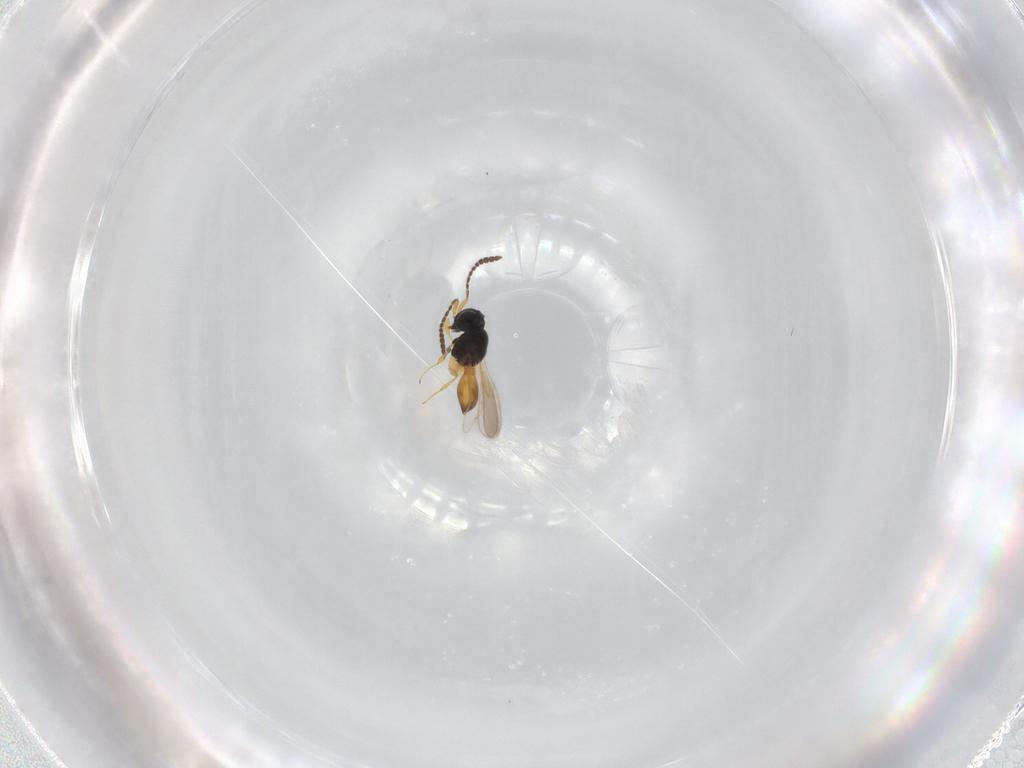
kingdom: Animalia
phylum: Arthropoda
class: Insecta
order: Hymenoptera
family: Scelionidae
